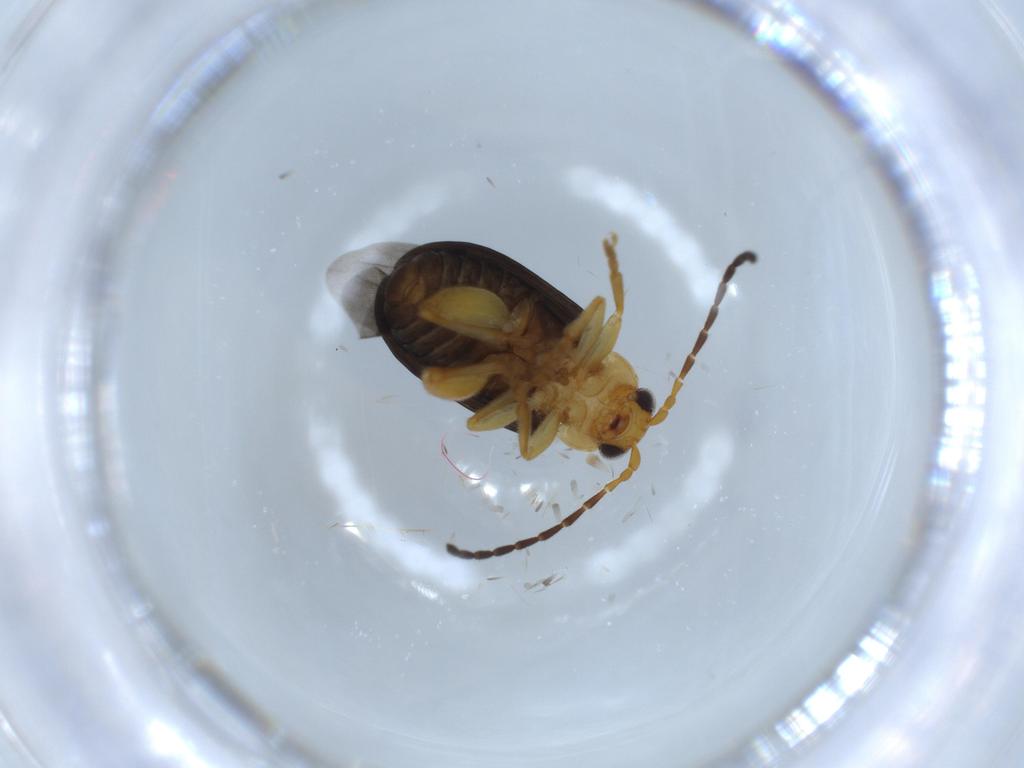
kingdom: Animalia
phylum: Arthropoda
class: Insecta
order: Coleoptera
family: Chrysomelidae
